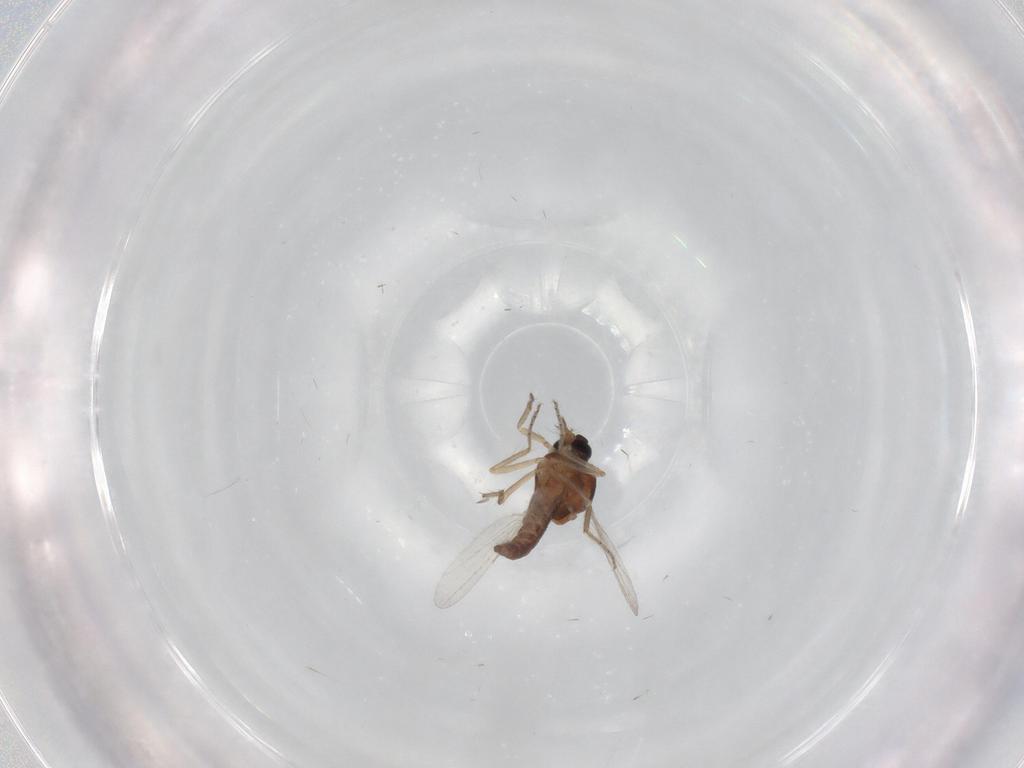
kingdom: Animalia
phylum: Arthropoda
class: Insecta
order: Diptera
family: Ceratopogonidae
